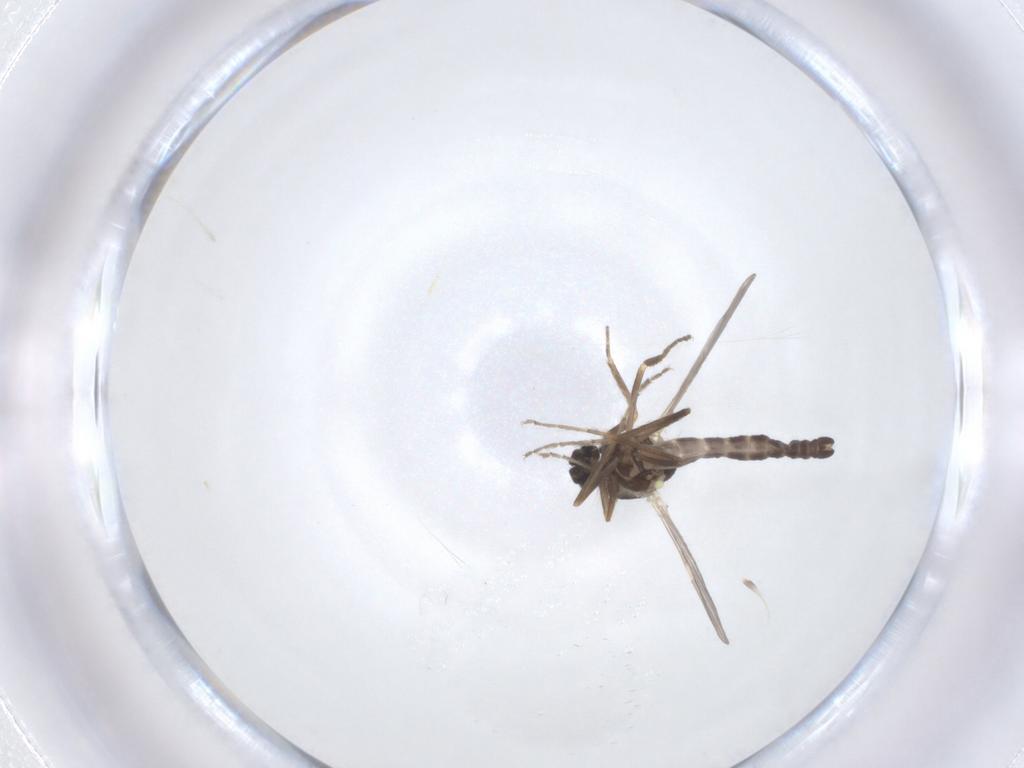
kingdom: Animalia
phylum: Arthropoda
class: Insecta
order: Diptera
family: Ceratopogonidae
